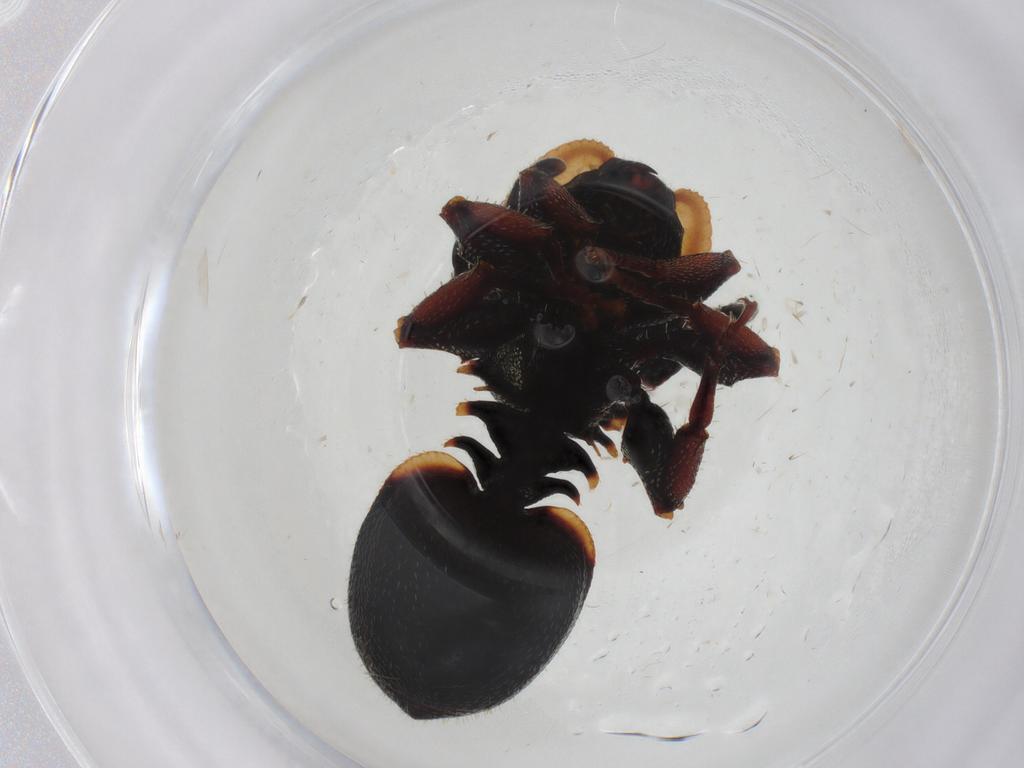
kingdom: Animalia
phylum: Arthropoda
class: Insecta
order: Hymenoptera
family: Formicidae
